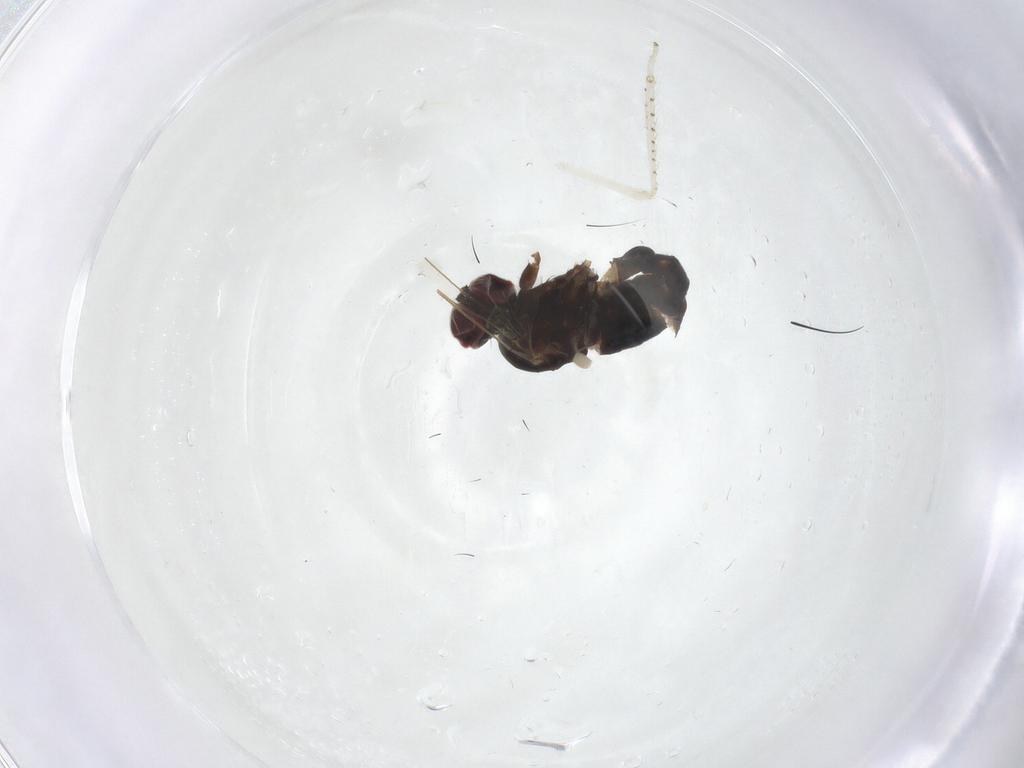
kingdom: Animalia
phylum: Arthropoda
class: Insecta
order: Diptera
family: Dolichopodidae
